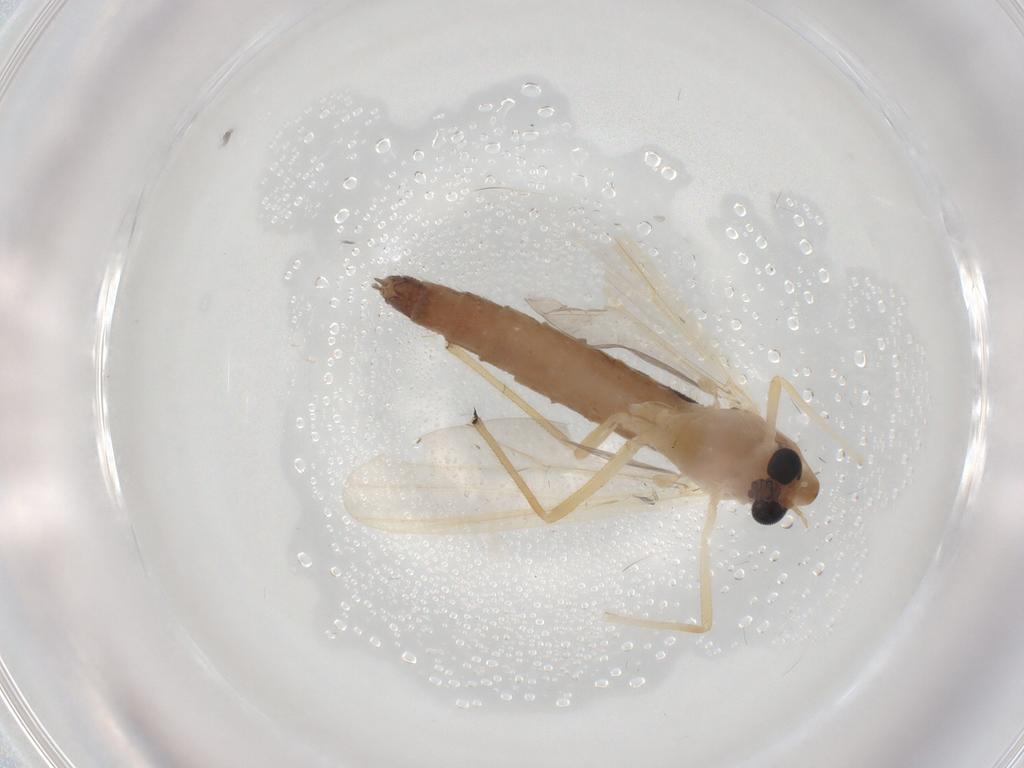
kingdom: Animalia
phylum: Arthropoda
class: Insecta
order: Diptera
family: Chironomidae
